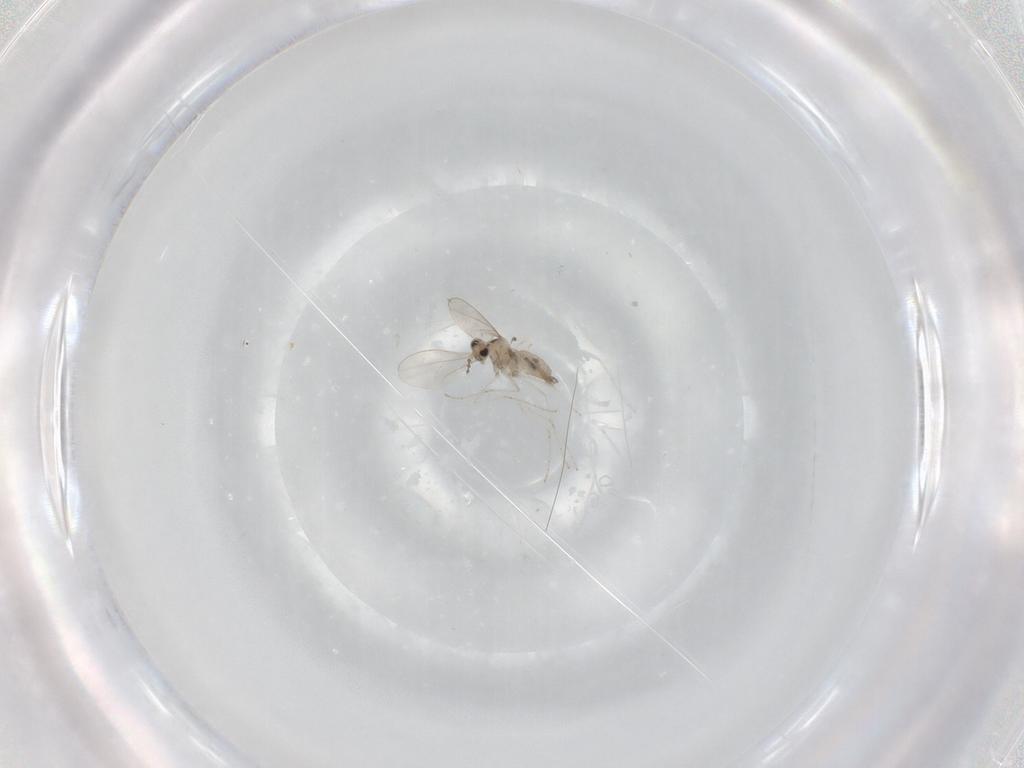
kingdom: Animalia
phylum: Arthropoda
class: Insecta
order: Diptera
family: Cecidomyiidae
